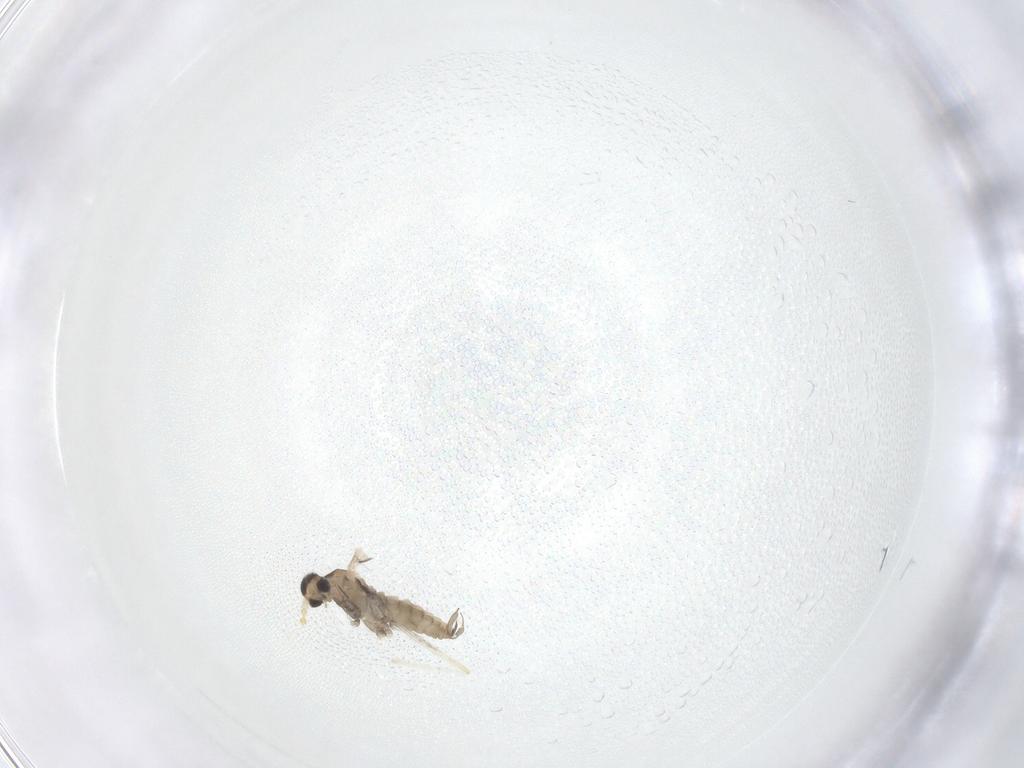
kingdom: Animalia
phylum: Arthropoda
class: Insecta
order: Diptera
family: Cecidomyiidae
